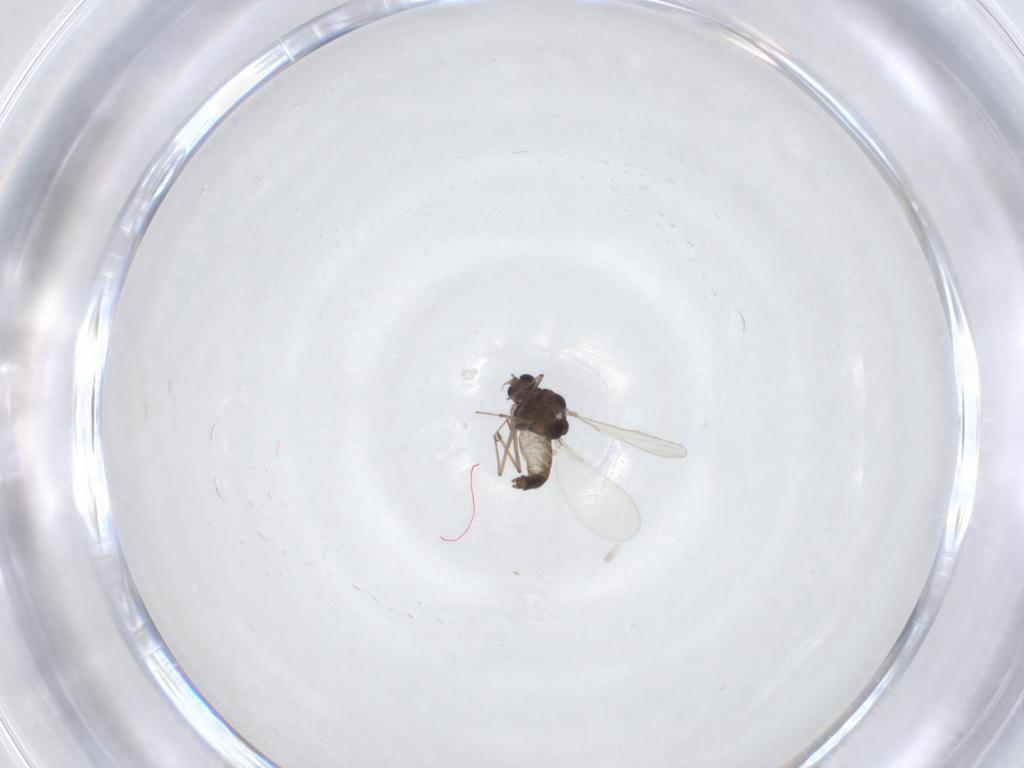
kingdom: Animalia
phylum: Arthropoda
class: Insecta
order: Diptera
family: Chironomidae
